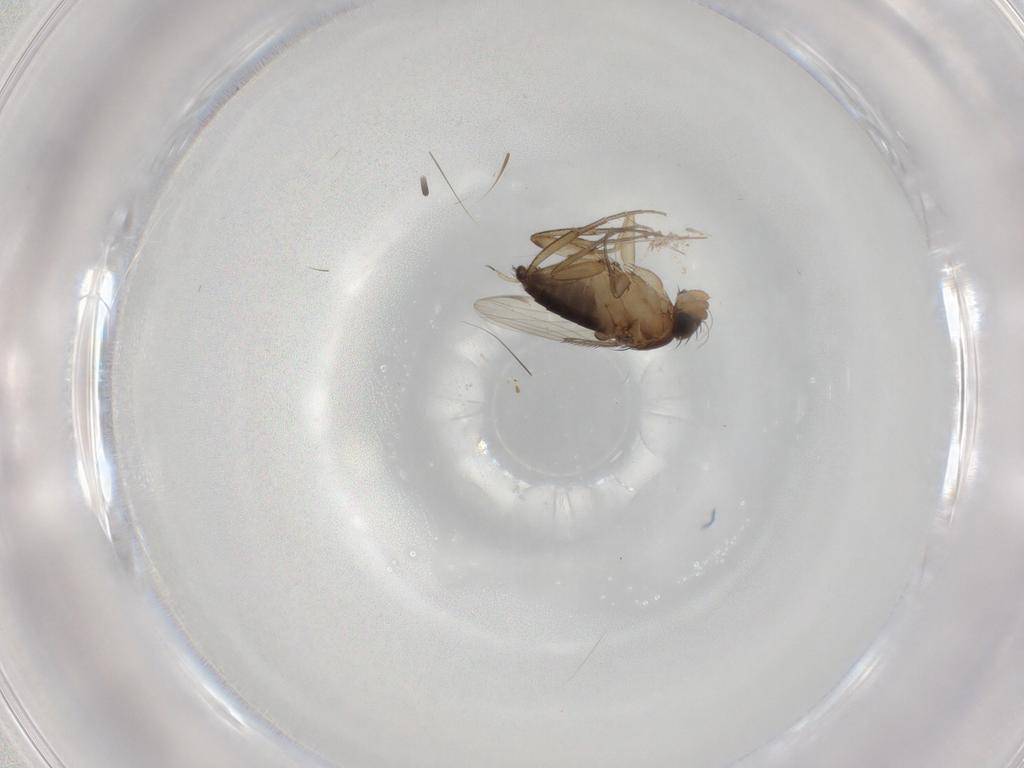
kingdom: Animalia
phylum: Arthropoda
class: Insecta
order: Diptera
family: Phoridae
